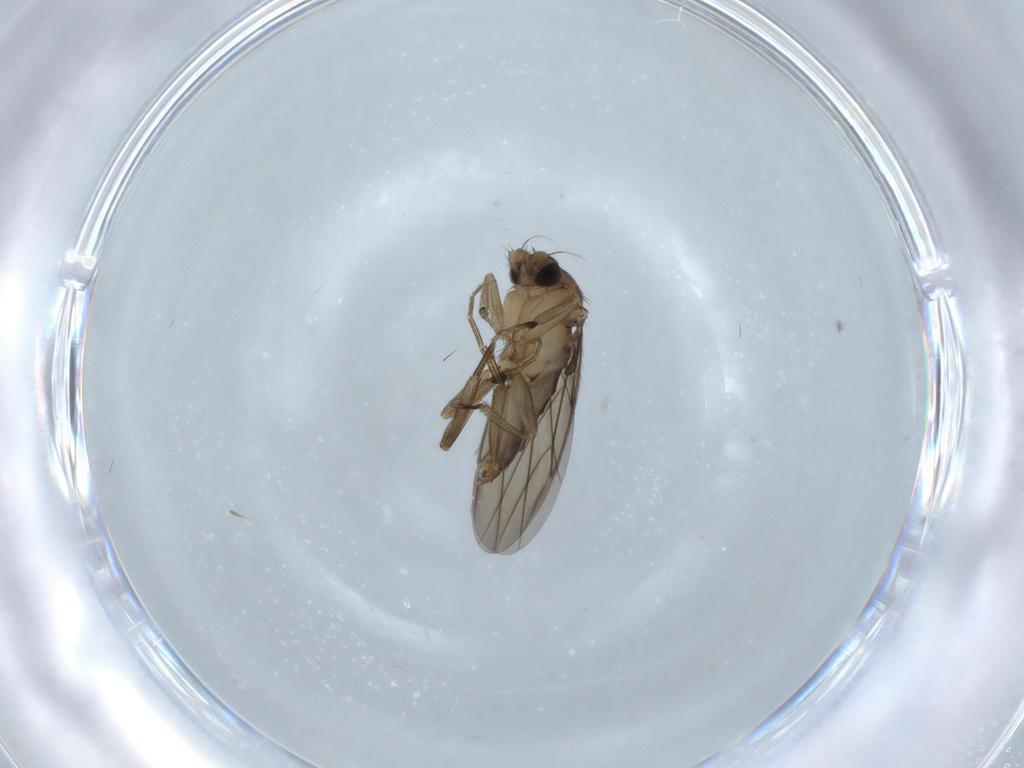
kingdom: Animalia
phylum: Arthropoda
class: Insecta
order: Diptera
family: Phoridae
